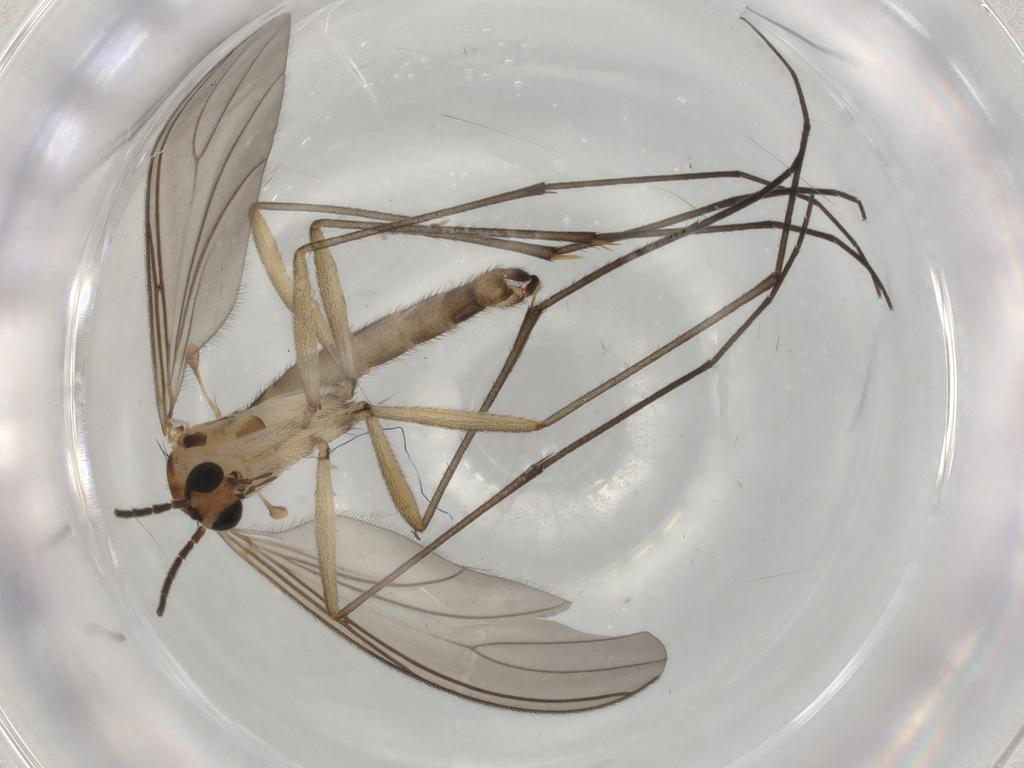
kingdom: Animalia
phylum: Arthropoda
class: Insecta
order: Diptera
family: Sciaridae
